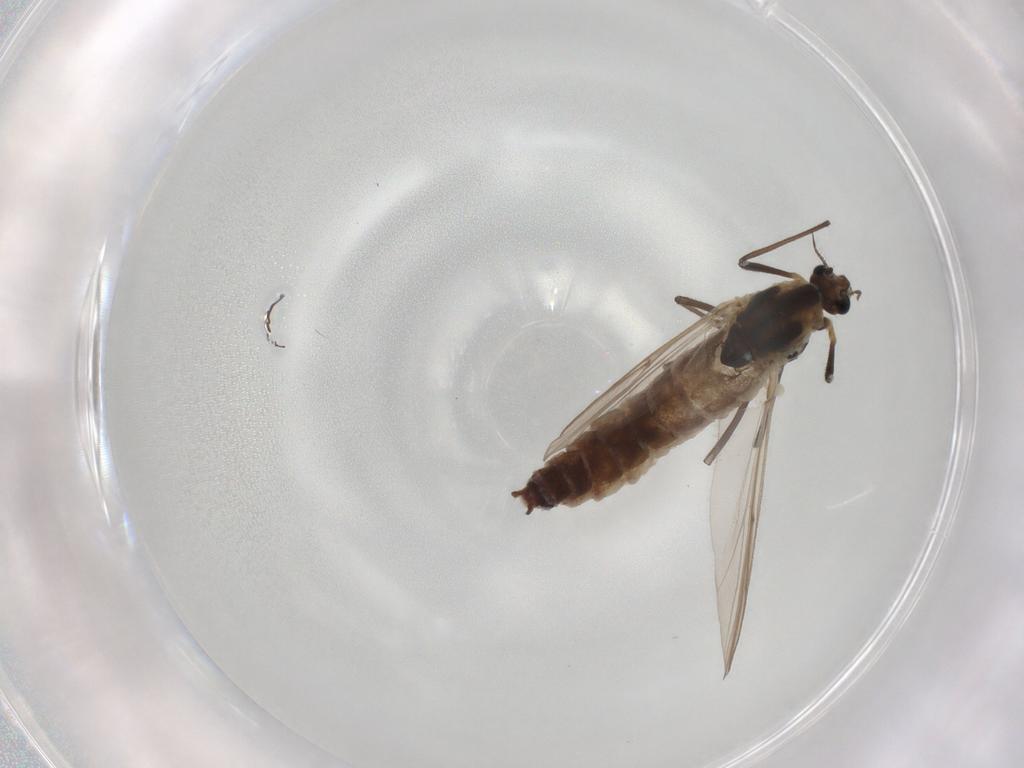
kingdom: Animalia
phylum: Arthropoda
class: Insecta
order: Diptera
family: Chironomidae
